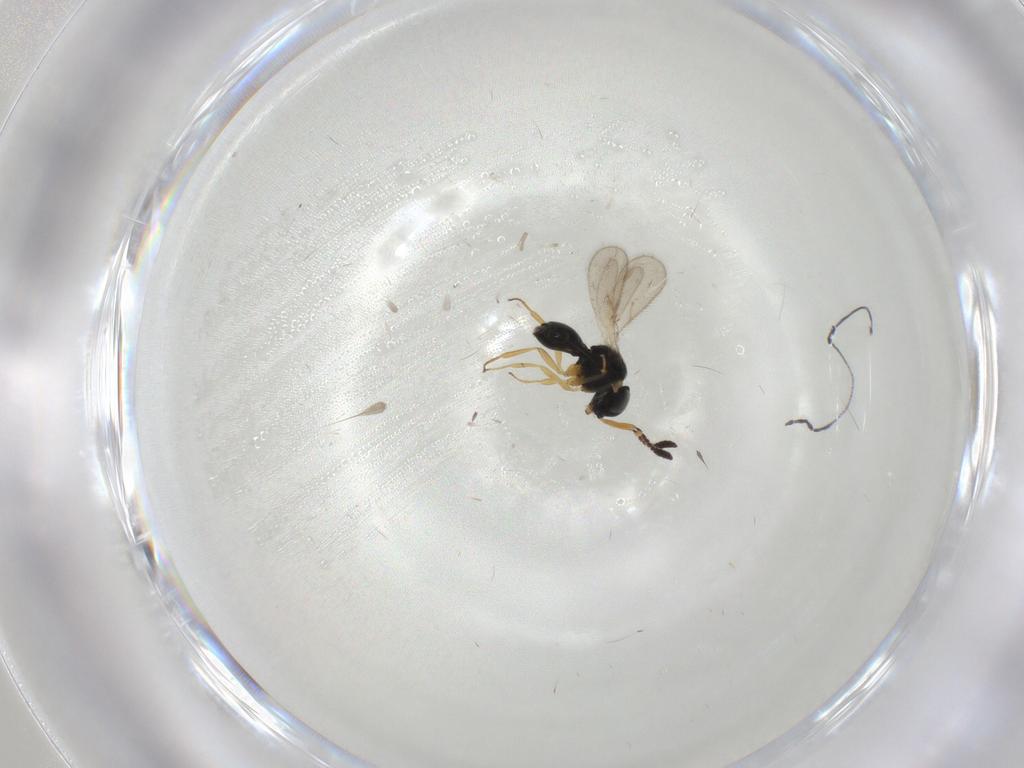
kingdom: Animalia
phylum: Arthropoda
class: Insecta
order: Hymenoptera
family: Scelionidae
